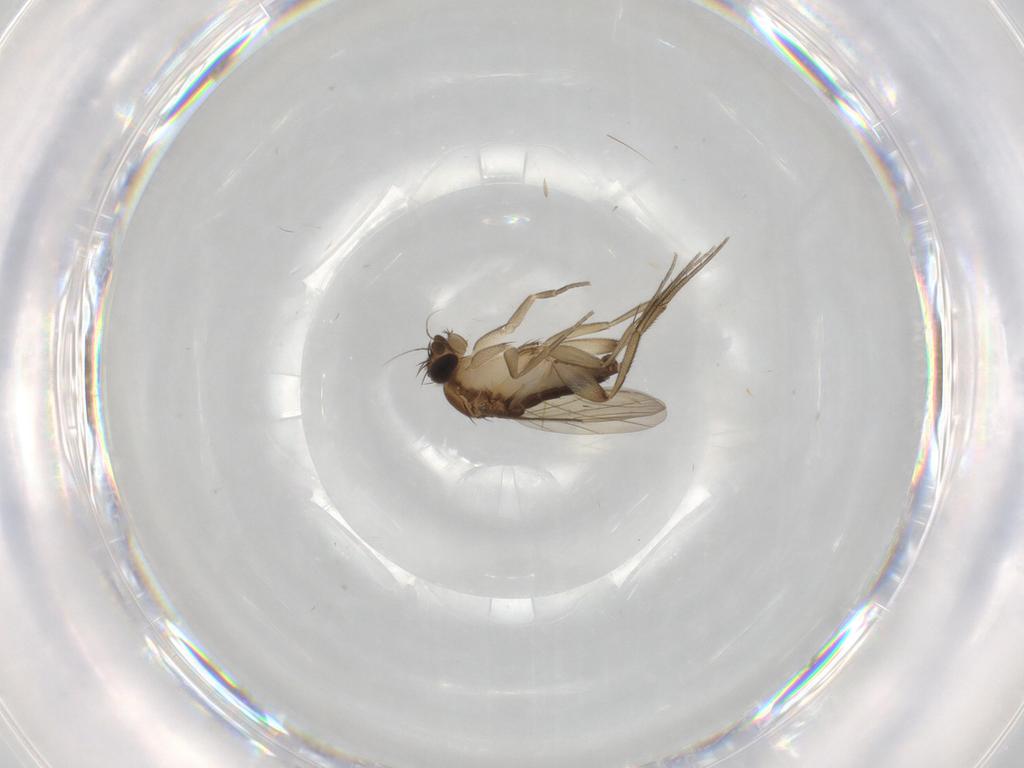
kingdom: Animalia
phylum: Arthropoda
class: Insecta
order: Diptera
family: Phoridae
